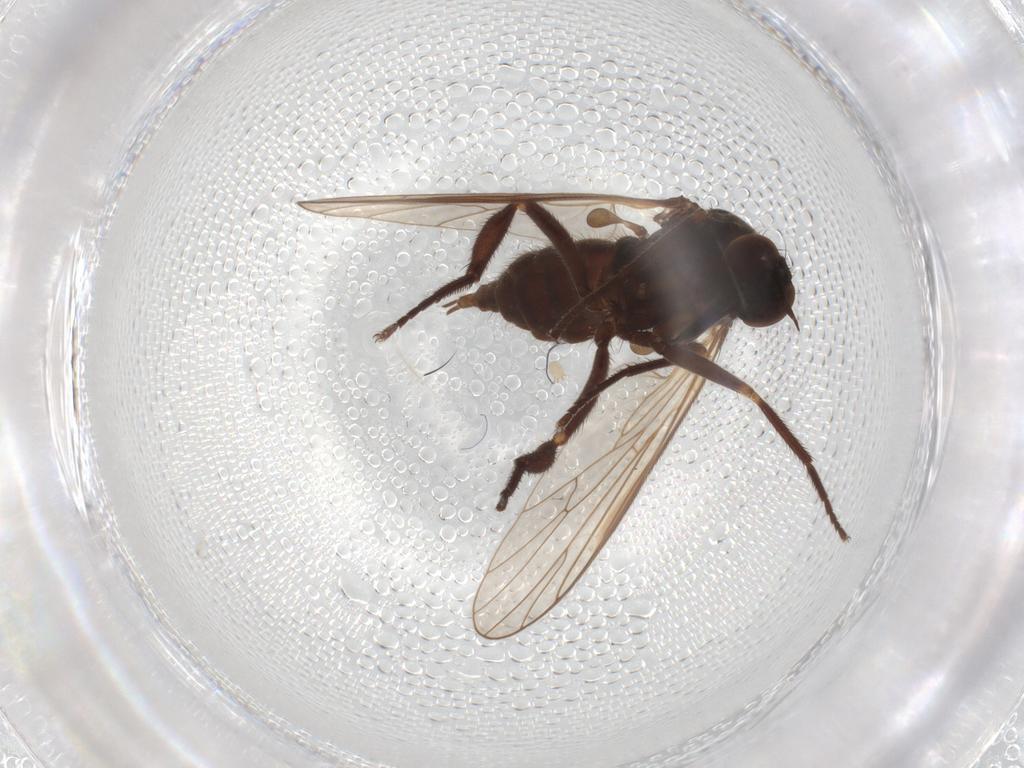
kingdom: Animalia
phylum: Arthropoda
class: Insecta
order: Diptera
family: Empididae
